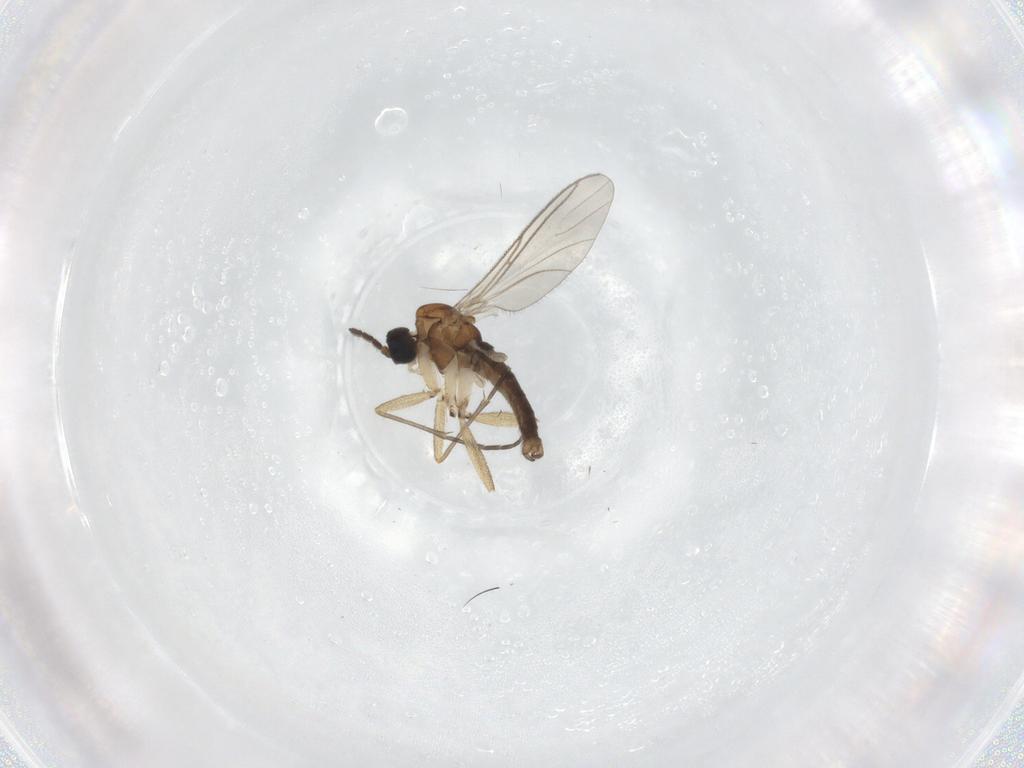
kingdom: Animalia
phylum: Arthropoda
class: Insecta
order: Diptera
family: Sciaridae
